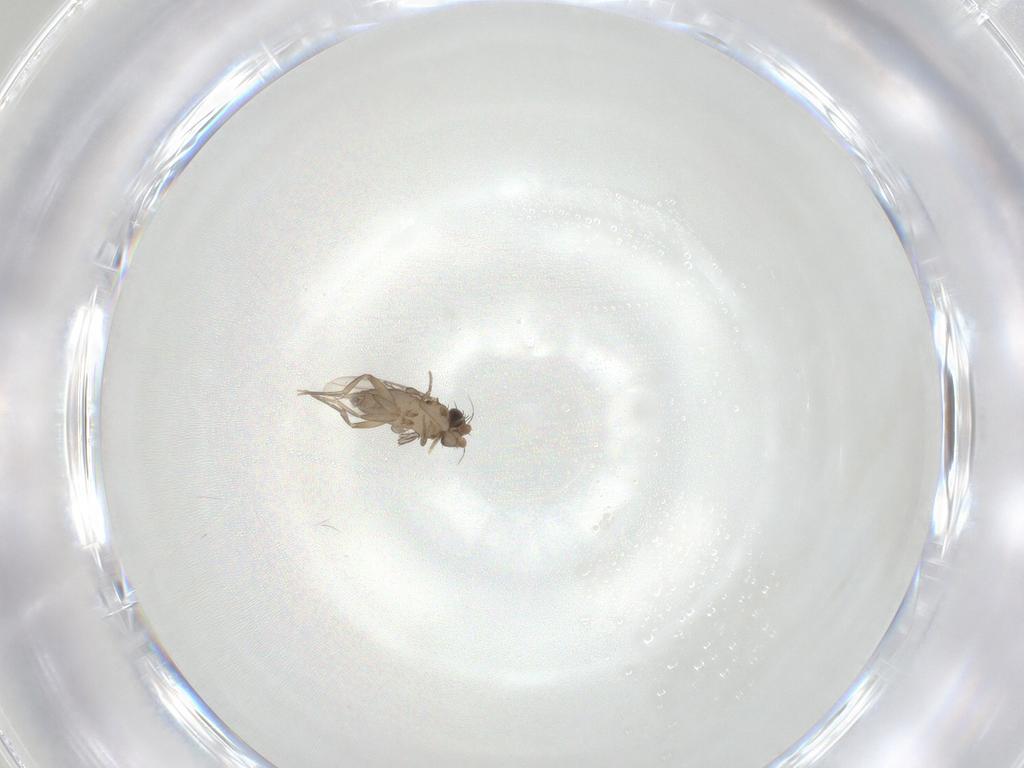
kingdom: Animalia
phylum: Arthropoda
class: Insecta
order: Diptera
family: Chironomidae
